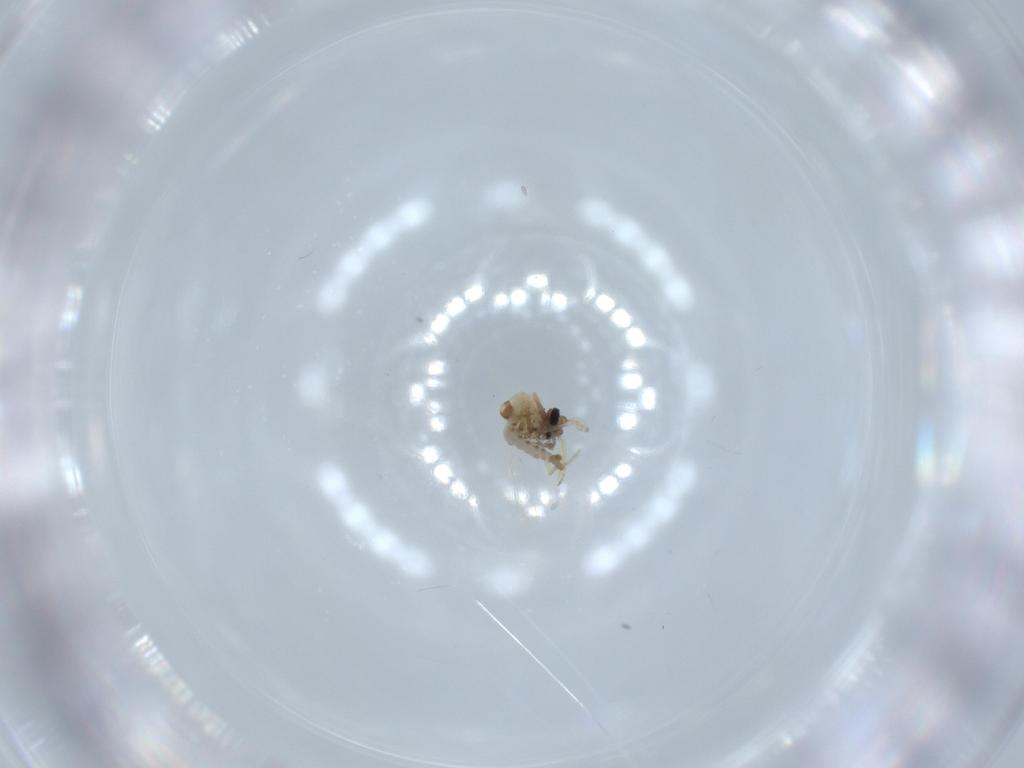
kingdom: Animalia
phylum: Arthropoda
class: Insecta
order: Diptera
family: Ceratopogonidae
